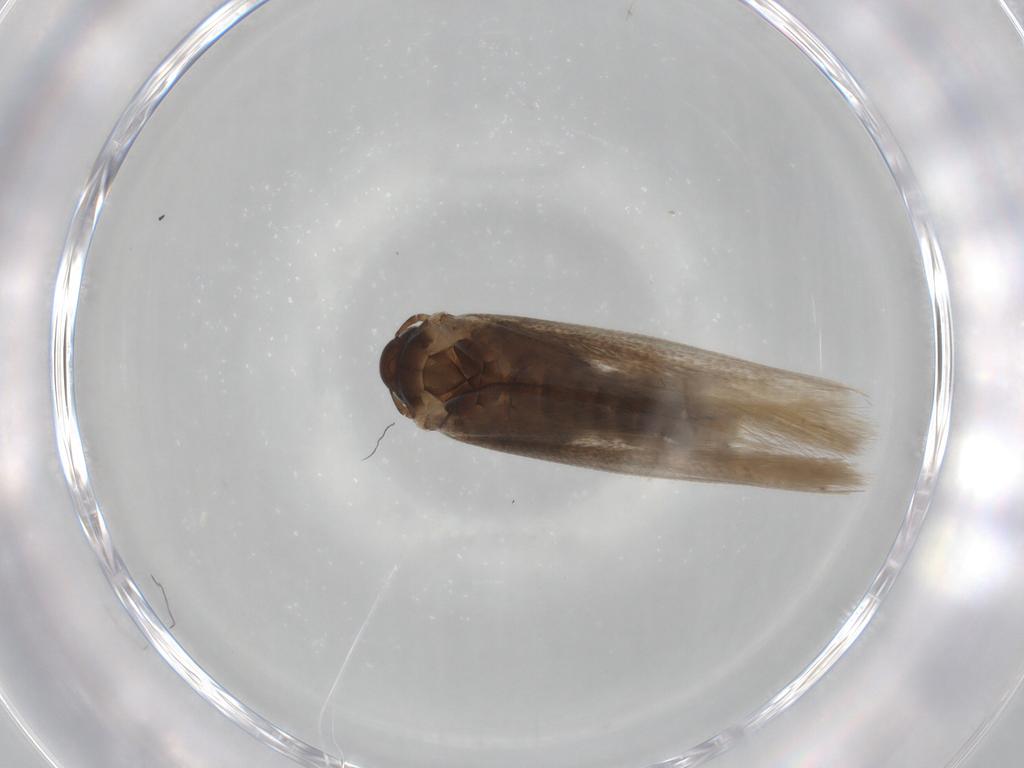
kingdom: Animalia
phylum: Arthropoda
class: Insecta
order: Lepidoptera
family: Gelechiidae
